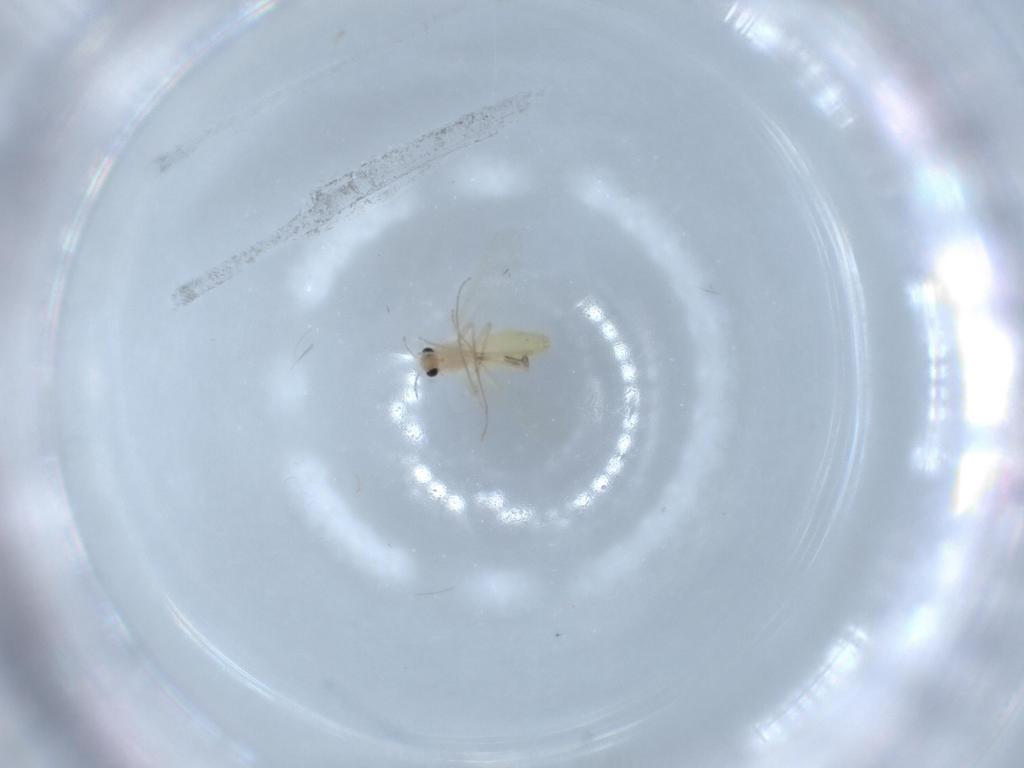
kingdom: Animalia
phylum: Arthropoda
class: Insecta
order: Diptera
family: Chironomidae
